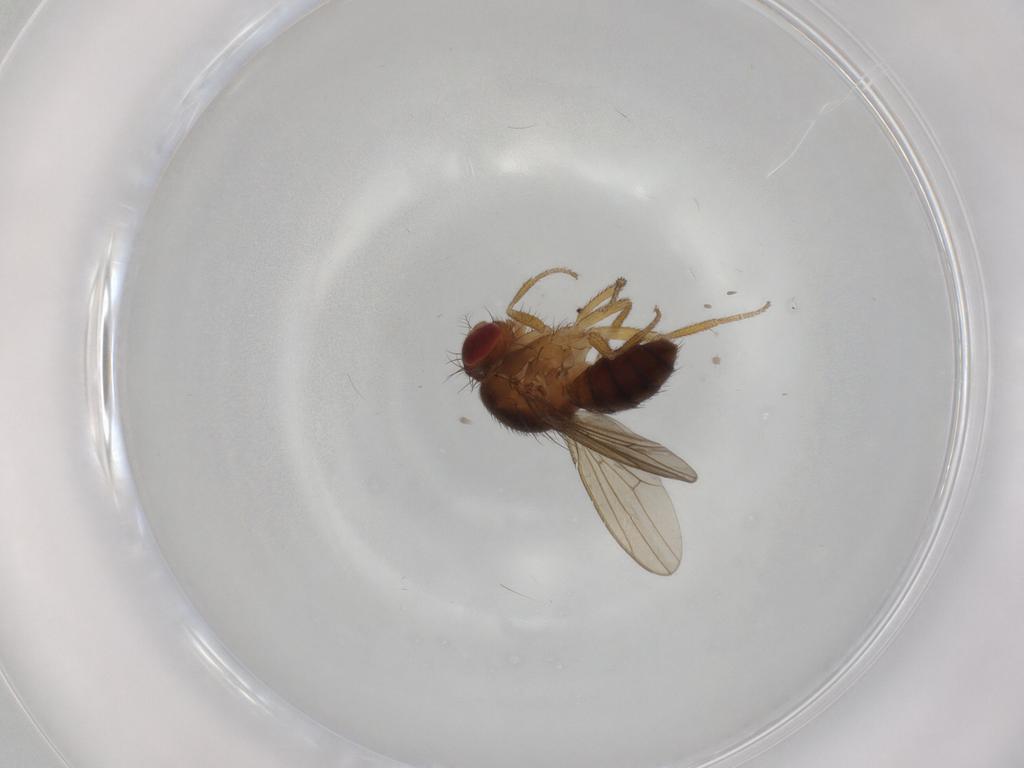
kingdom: Animalia
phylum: Arthropoda
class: Insecta
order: Diptera
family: Drosophilidae
